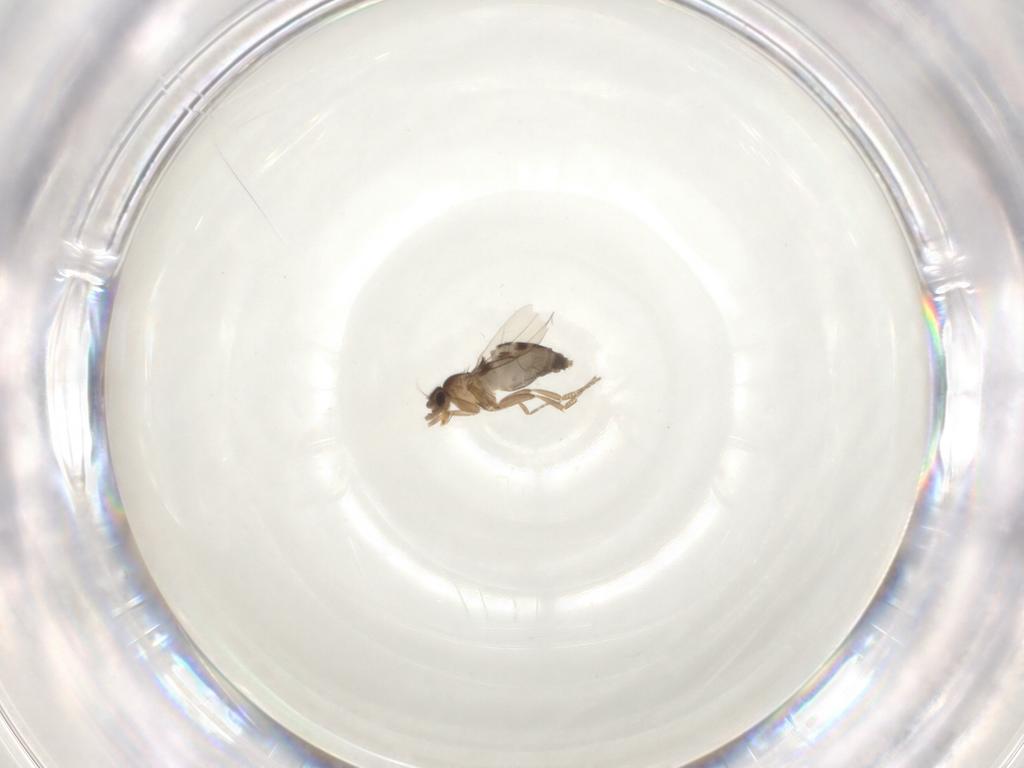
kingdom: Animalia
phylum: Arthropoda
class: Insecta
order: Diptera
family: Phoridae
